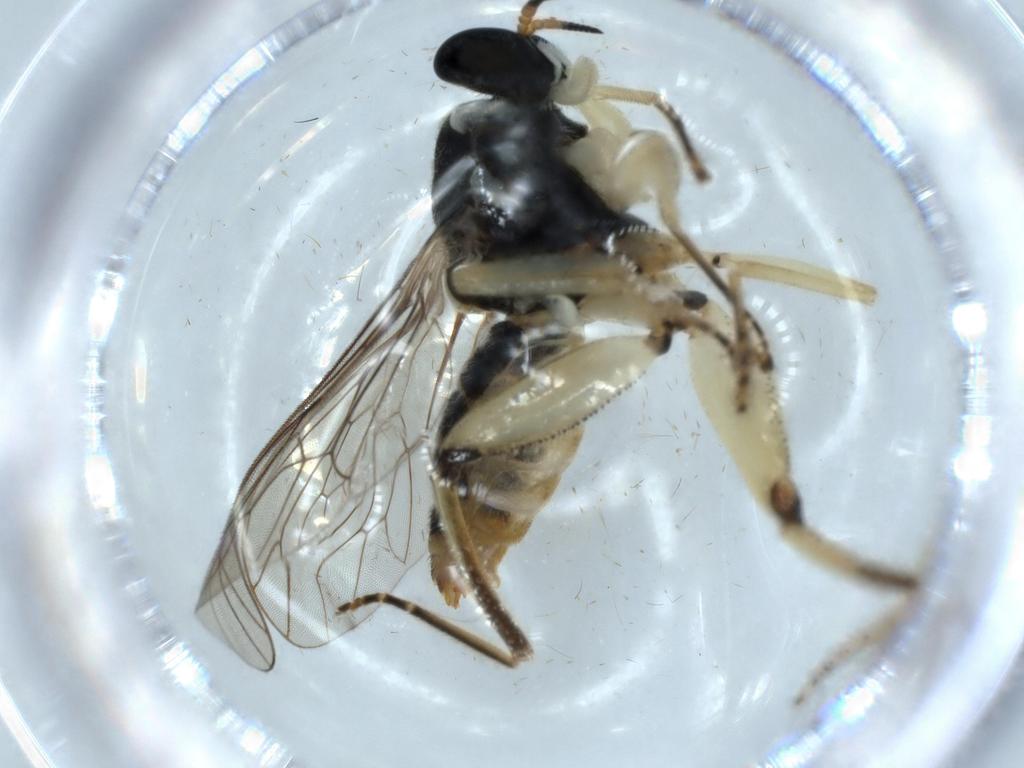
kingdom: Animalia
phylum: Arthropoda
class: Insecta
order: Diptera
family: Ceratopogonidae
